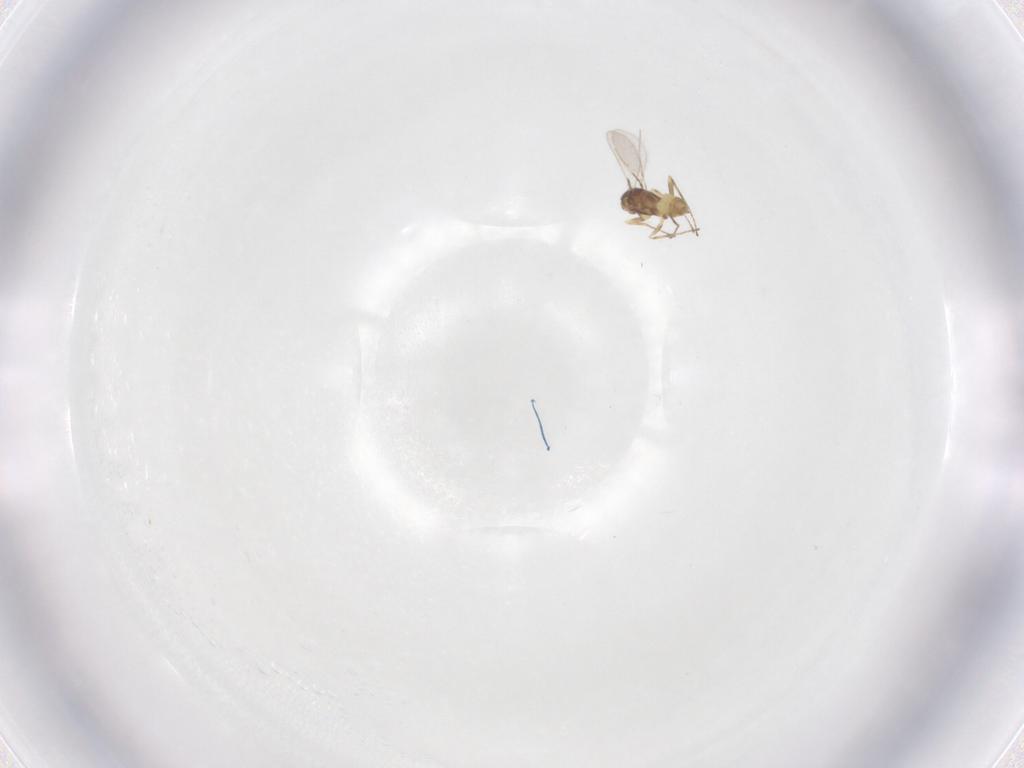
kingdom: Animalia
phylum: Arthropoda
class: Insecta
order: Hymenoptera
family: Mymaridae
